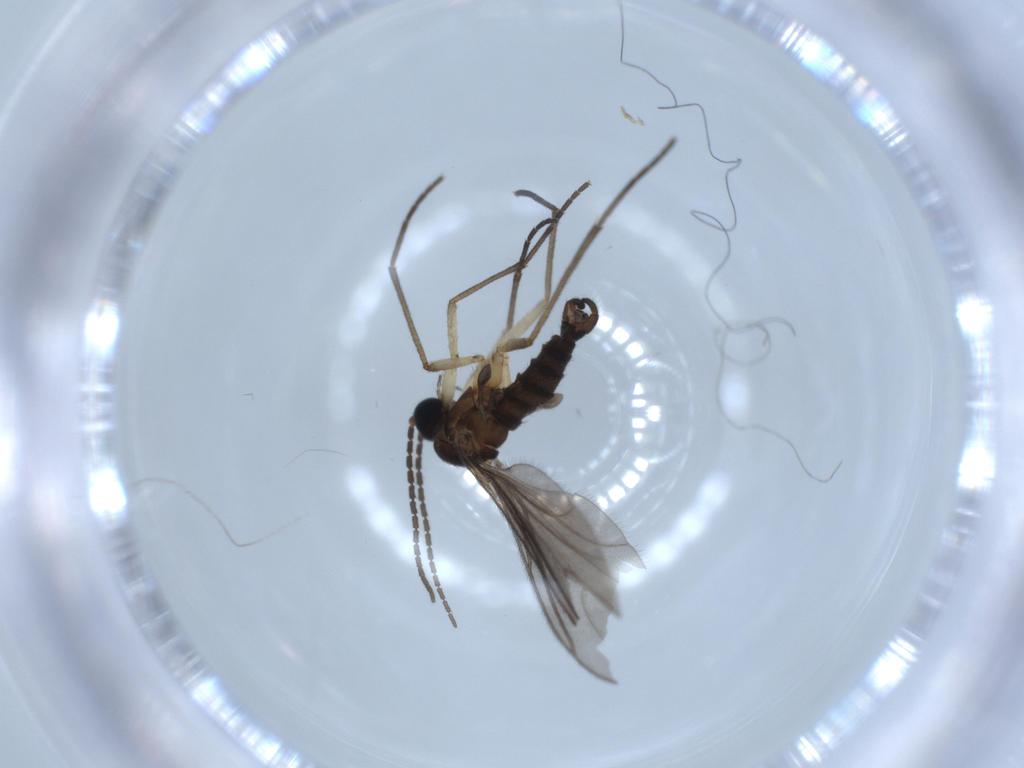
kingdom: Animalia
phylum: Arthropoda
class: Insecta
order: Diptera
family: Sciaridae
